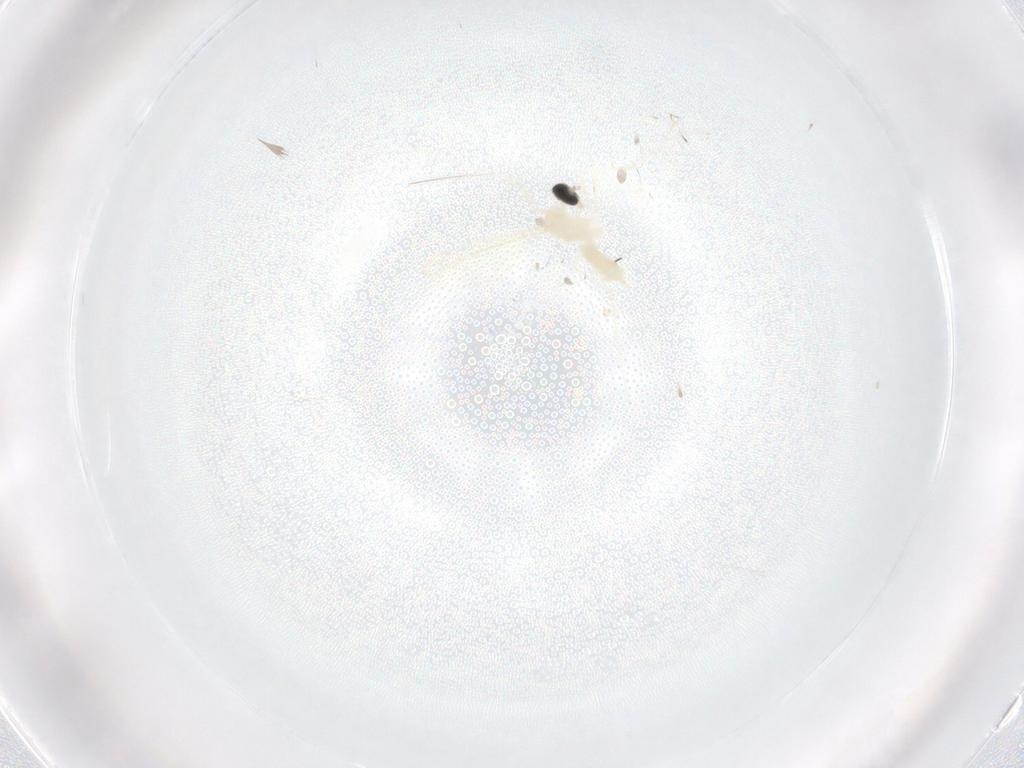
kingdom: Animalia
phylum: Arthropoda
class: Insecta
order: Diptera
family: Cecidomyiidae
